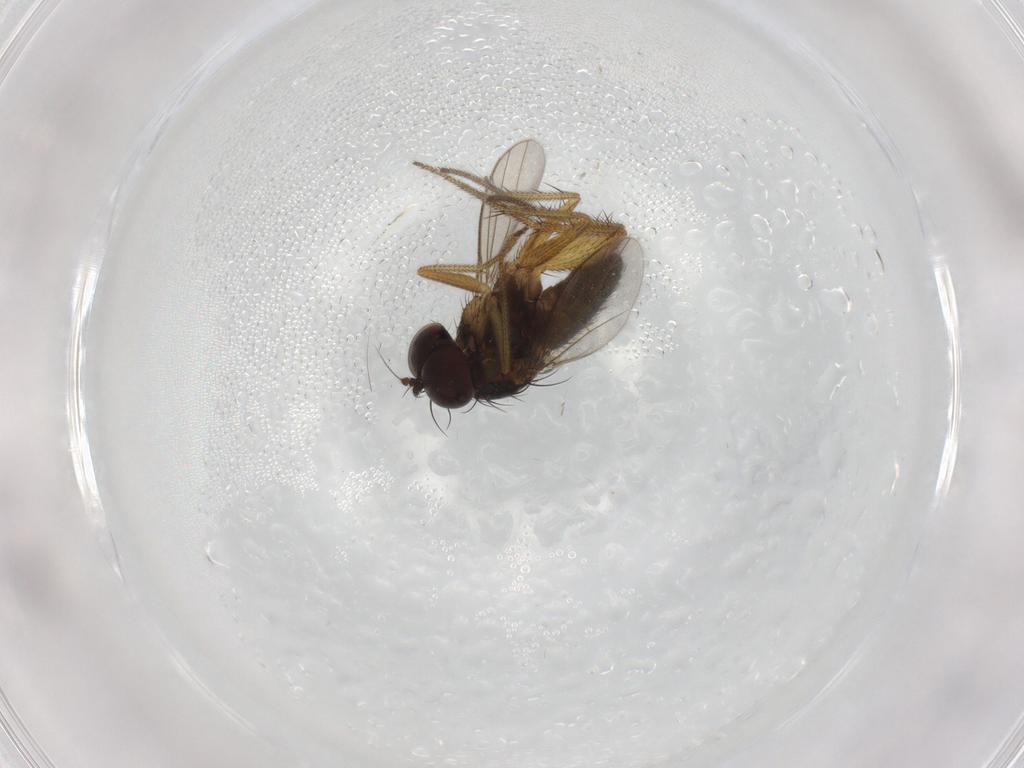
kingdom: Animalia
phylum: Arthropoda
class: Insecta
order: Diptera
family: Dolichopodidae
